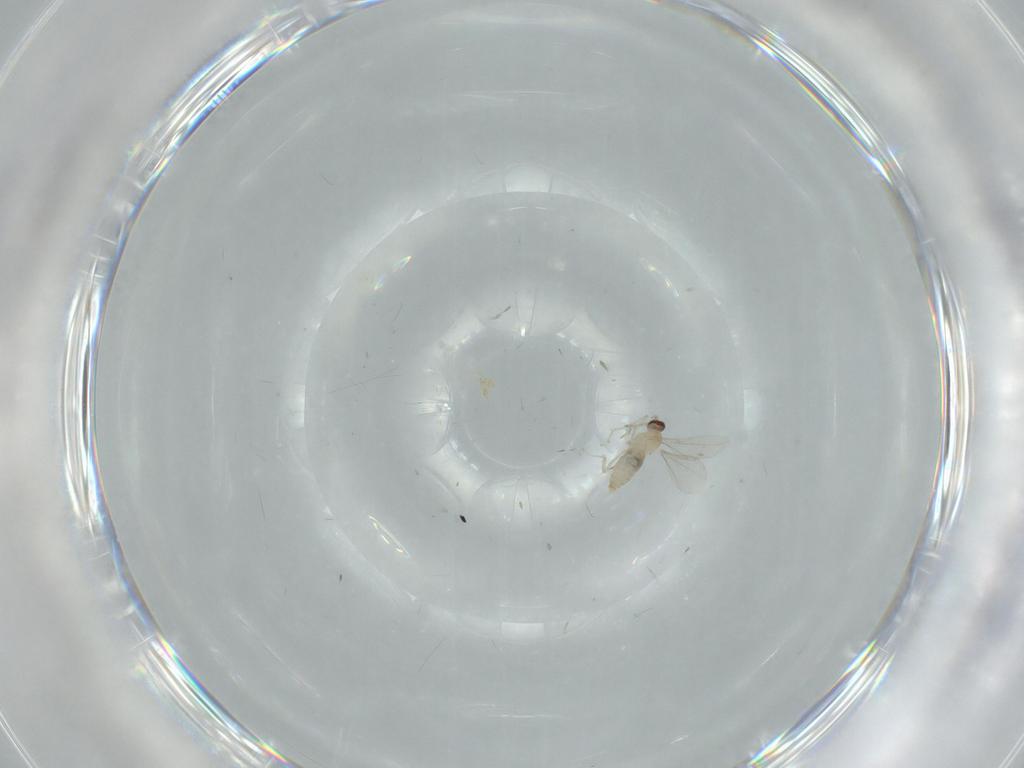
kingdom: Animalia
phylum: Arthropoda
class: Insecta
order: Diptera
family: Cecidomyiidae
